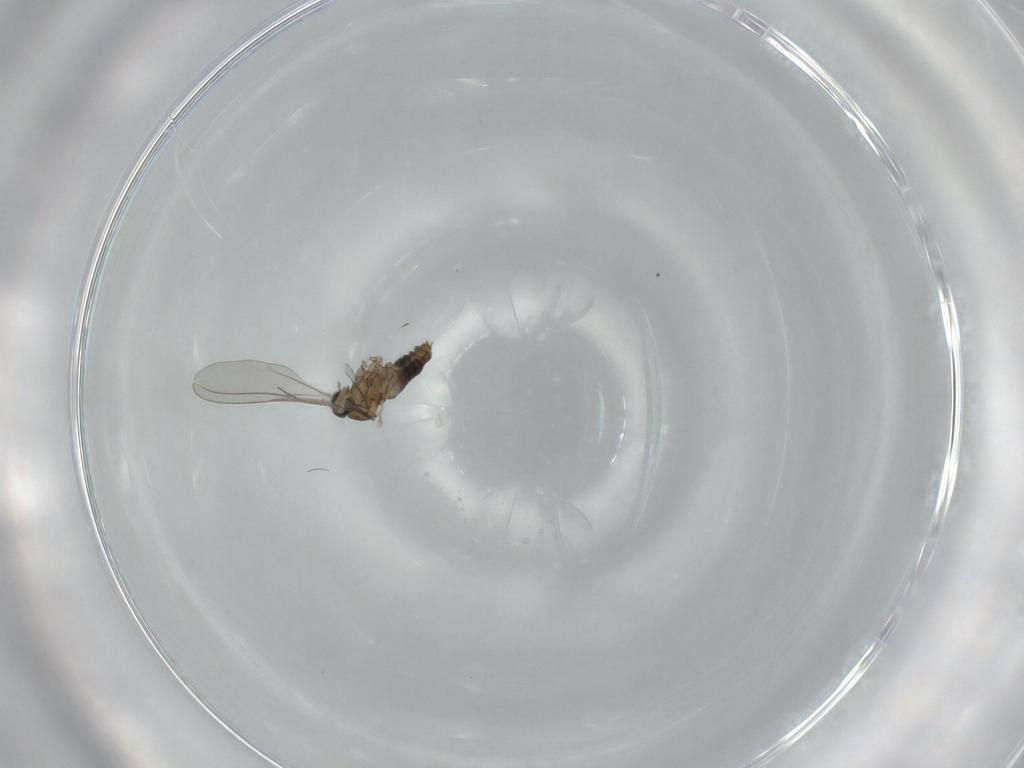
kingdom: Animalia
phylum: Arthropoda
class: Insecta
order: Diptera
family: Cecidomyiidae
